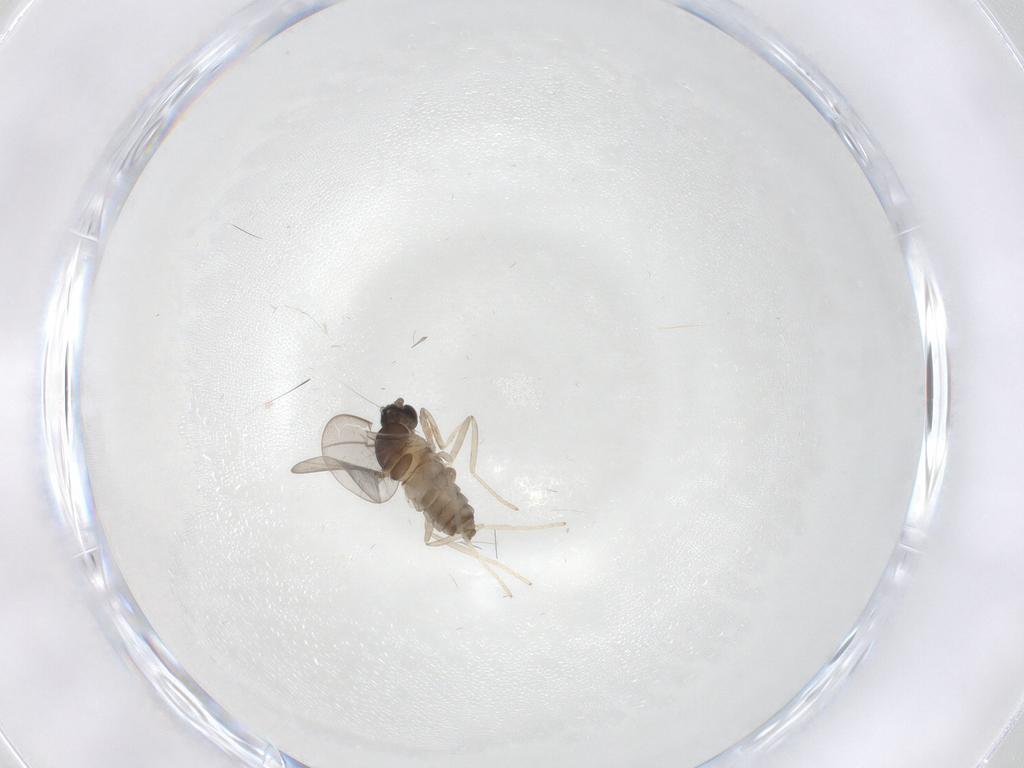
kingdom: Animalia
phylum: Arthropoda
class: Insecta
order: Diptera
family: Cecidomyiidae
